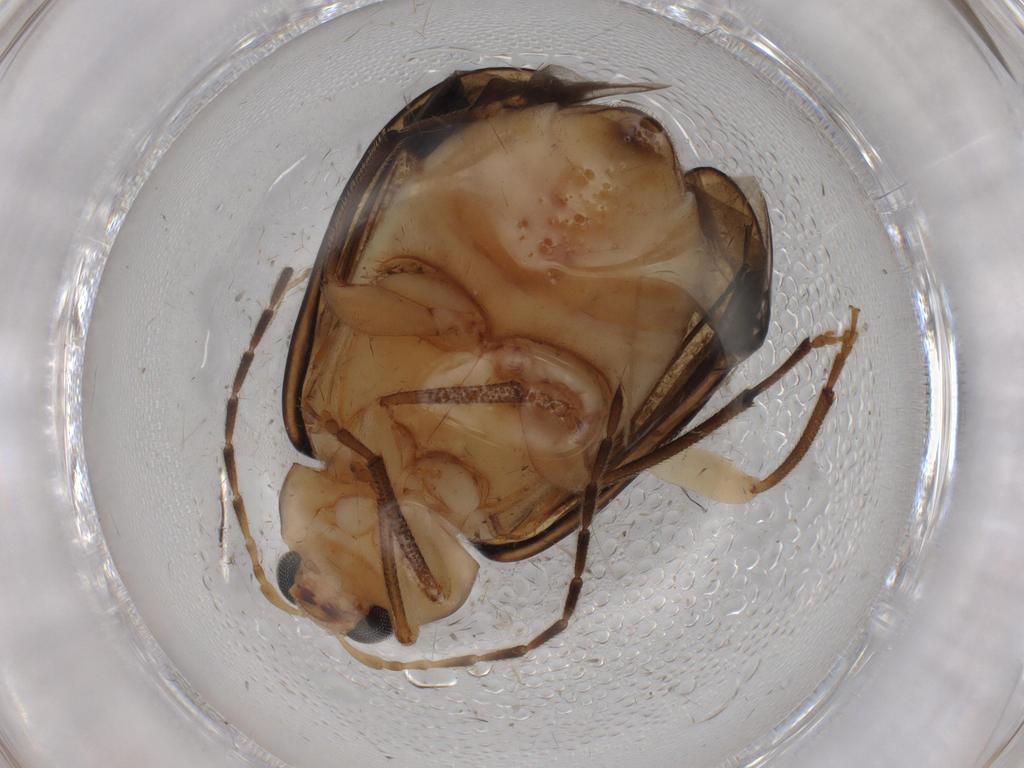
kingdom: Animalia
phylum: Arthropoda
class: Insecta
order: Coleoptera
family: Chrysomelidae
